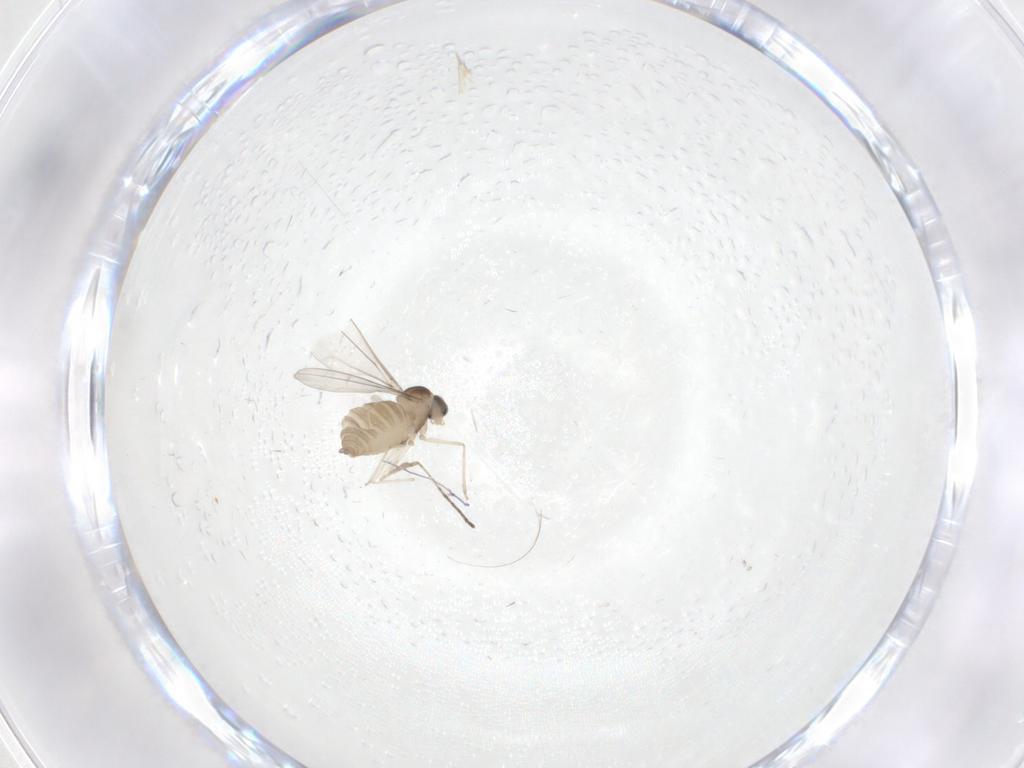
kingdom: Animalia
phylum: Arthropoda
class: Insecta
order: Diptera
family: Cecidomyiidae
